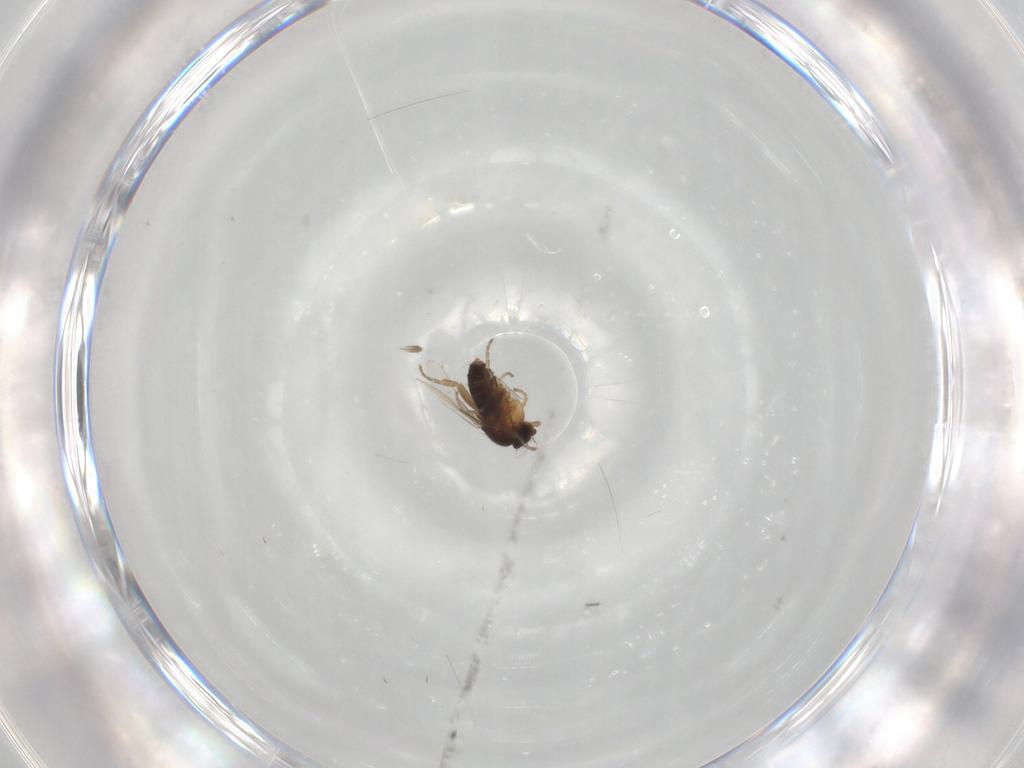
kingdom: Animalia
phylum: Arthropoda
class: Insecta
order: Diptera
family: Phoridae
